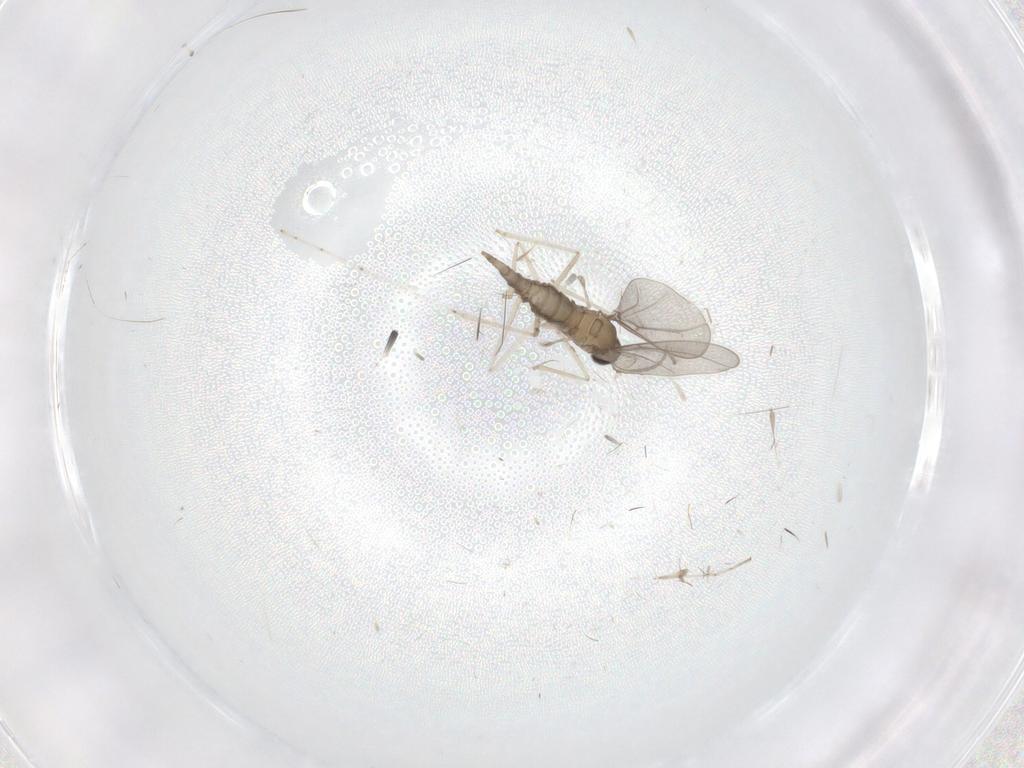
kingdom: Animalia
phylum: Arthropoda
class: Insecta
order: Diptera
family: Cecidomyiidae
